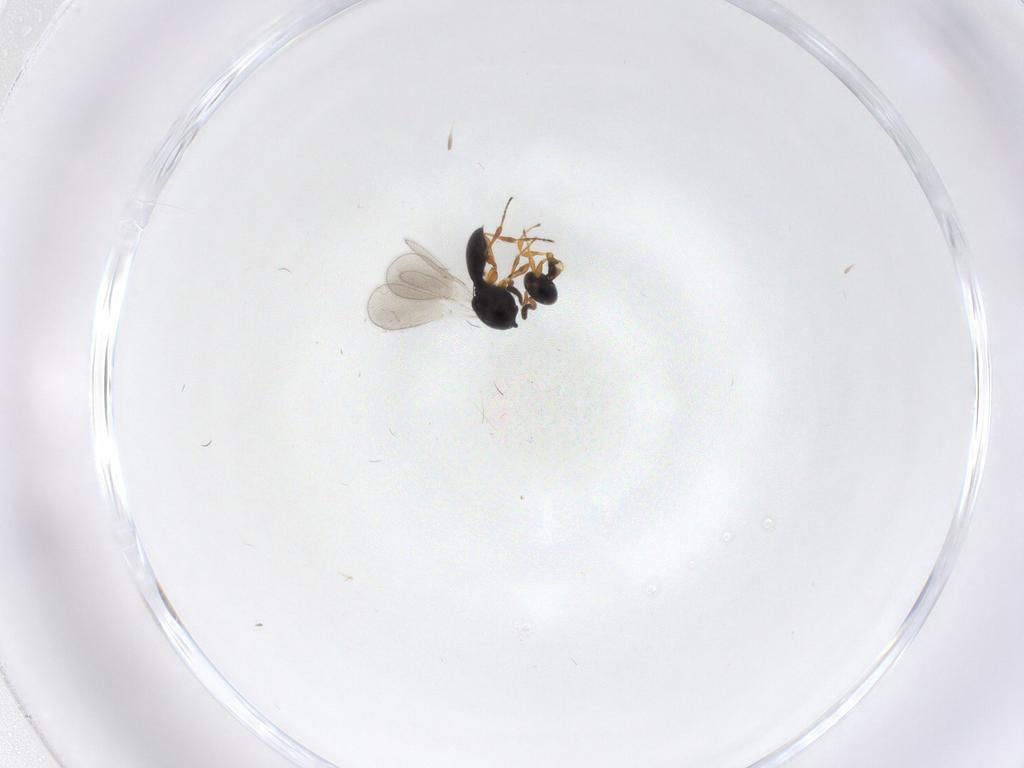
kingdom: Animalia
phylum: Arthropoda
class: Insecta
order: Hymenoptera
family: Platygastridae
